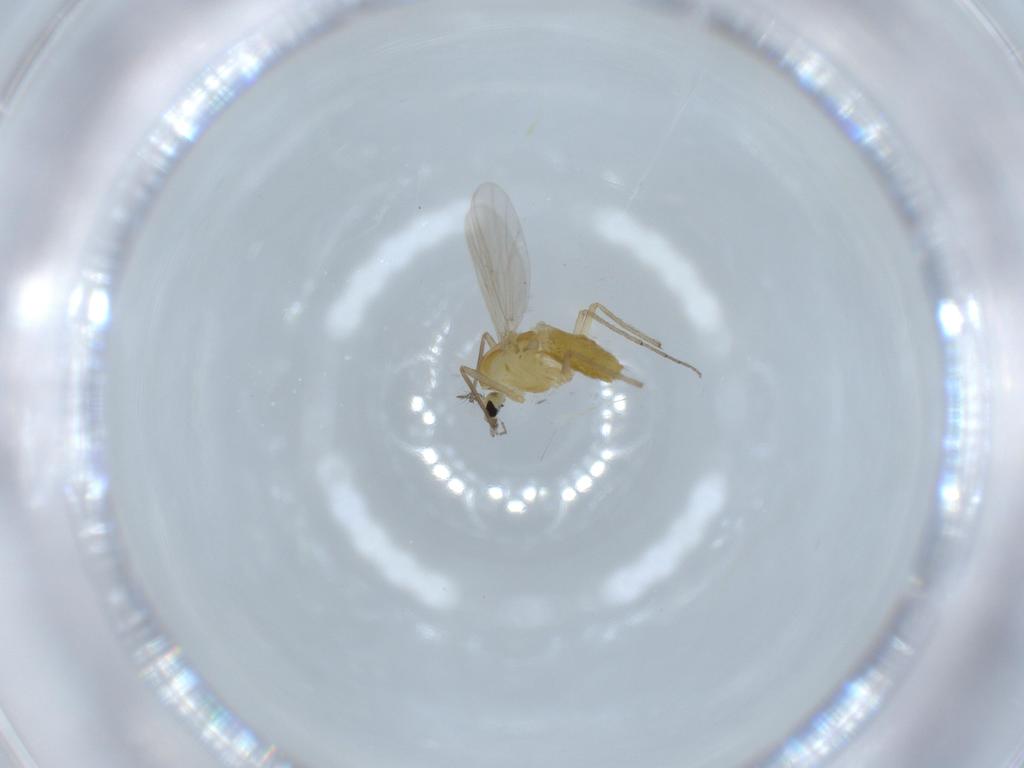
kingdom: Animalia
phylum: Arthropoda
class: Insecta
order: Diptera
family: Chironomidae
